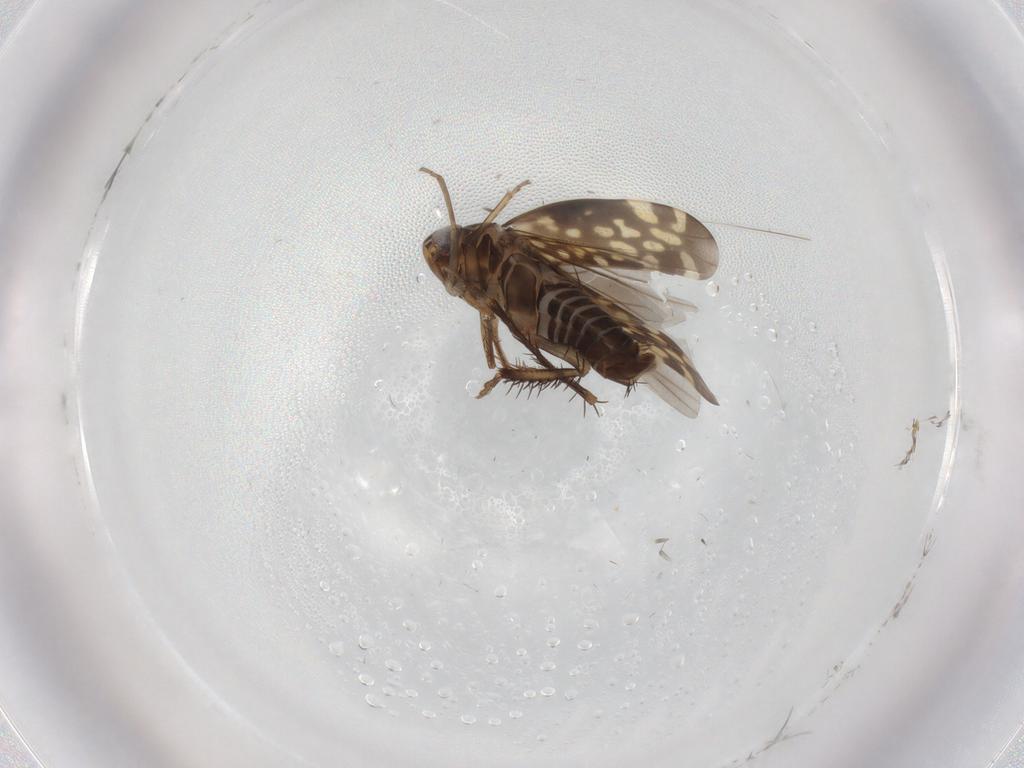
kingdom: Animalia
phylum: Arthropoda
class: Insecta
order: Hemiptera
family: Cicadellidae
